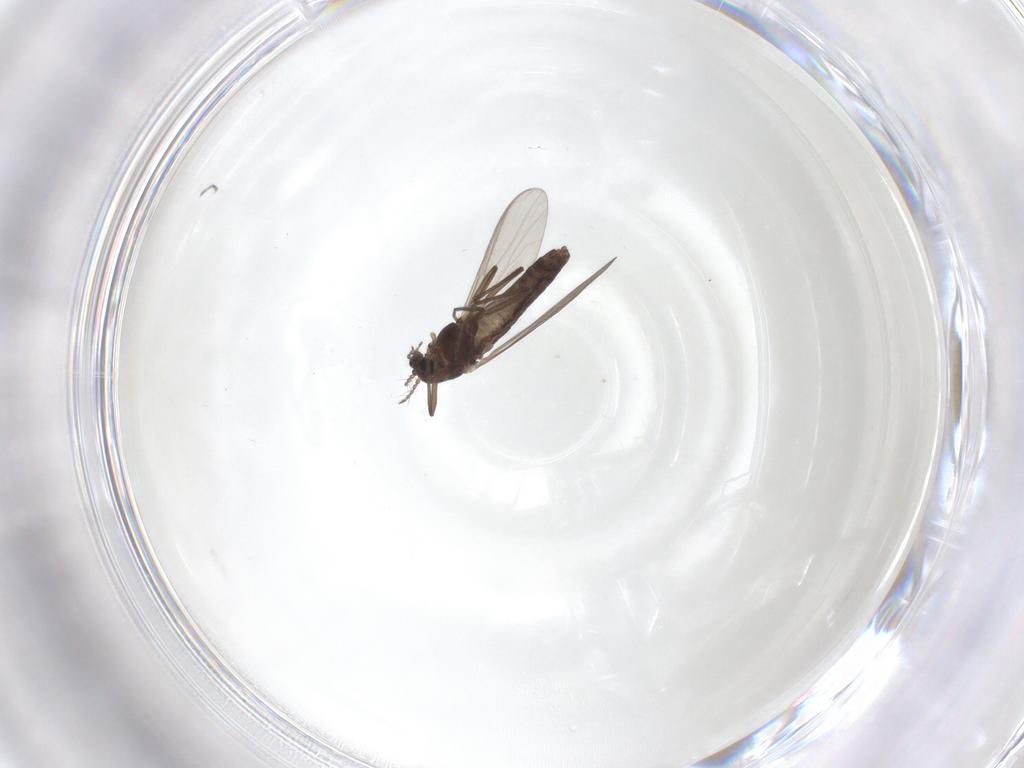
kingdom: Animalia
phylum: Arthropoda
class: Insecta
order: Diptera
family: Chironomidae
